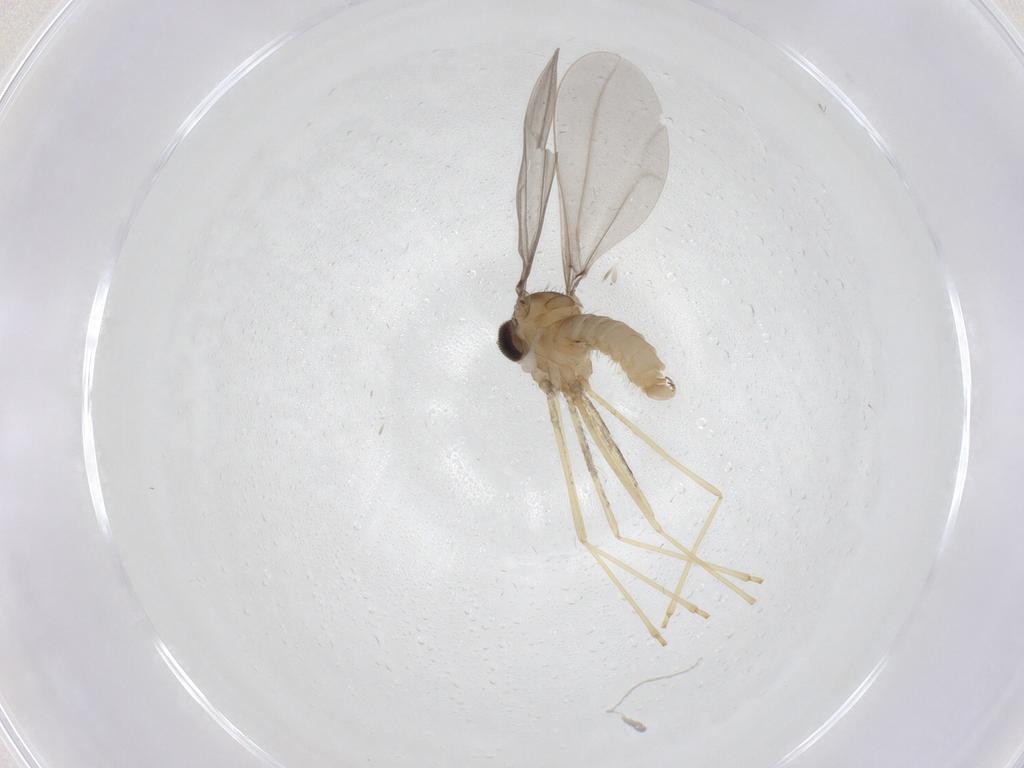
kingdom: Animalia
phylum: Arthropoda
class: Insecta
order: Diptera
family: Cecidomyiidae
